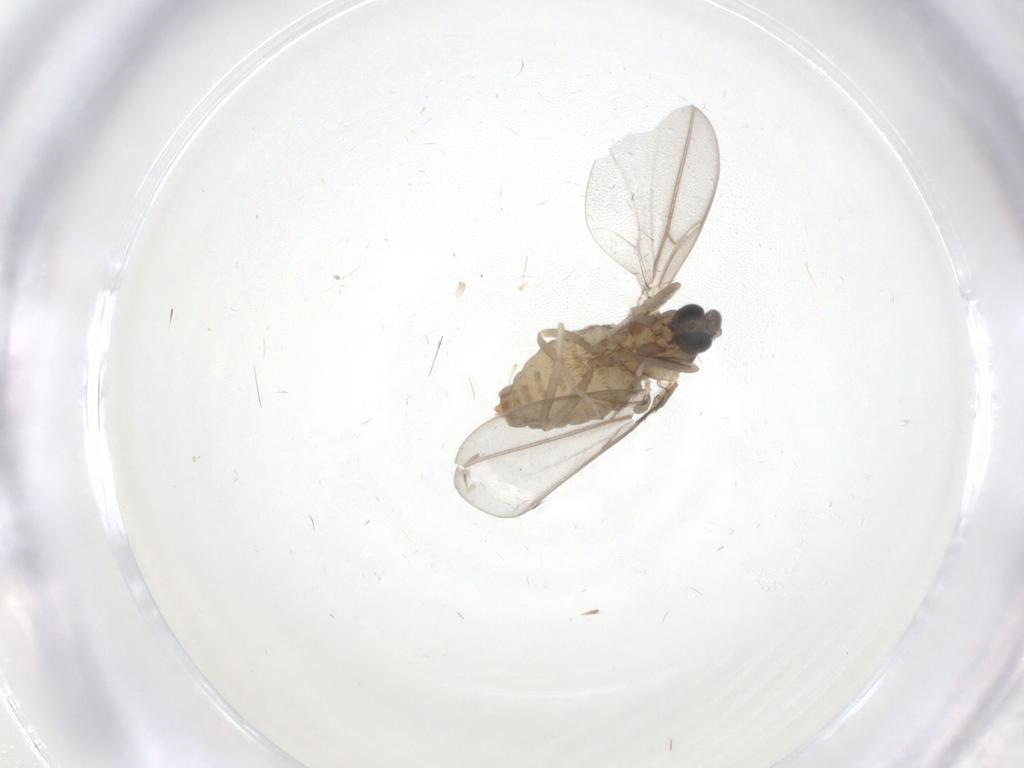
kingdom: Animalia
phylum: Arthropoda
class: Insecta
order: Diptera
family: Cecidomyiidae
